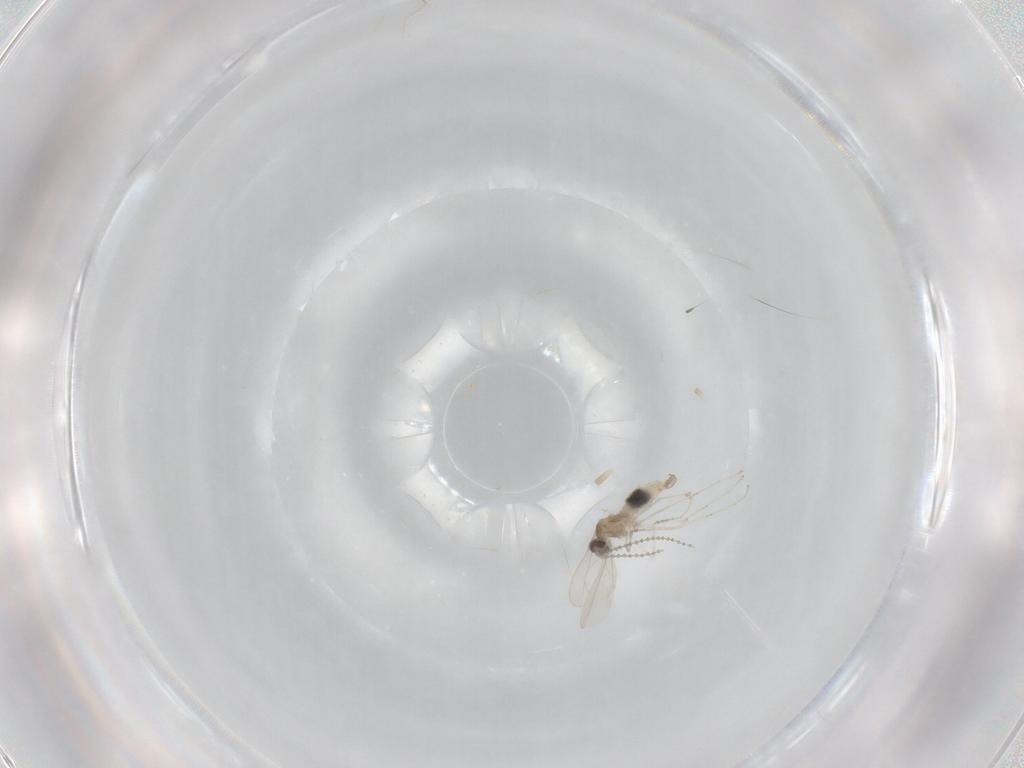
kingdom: Animalia
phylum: Arthropoda
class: Insecta
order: Diptera
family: Cecidomyiidae
